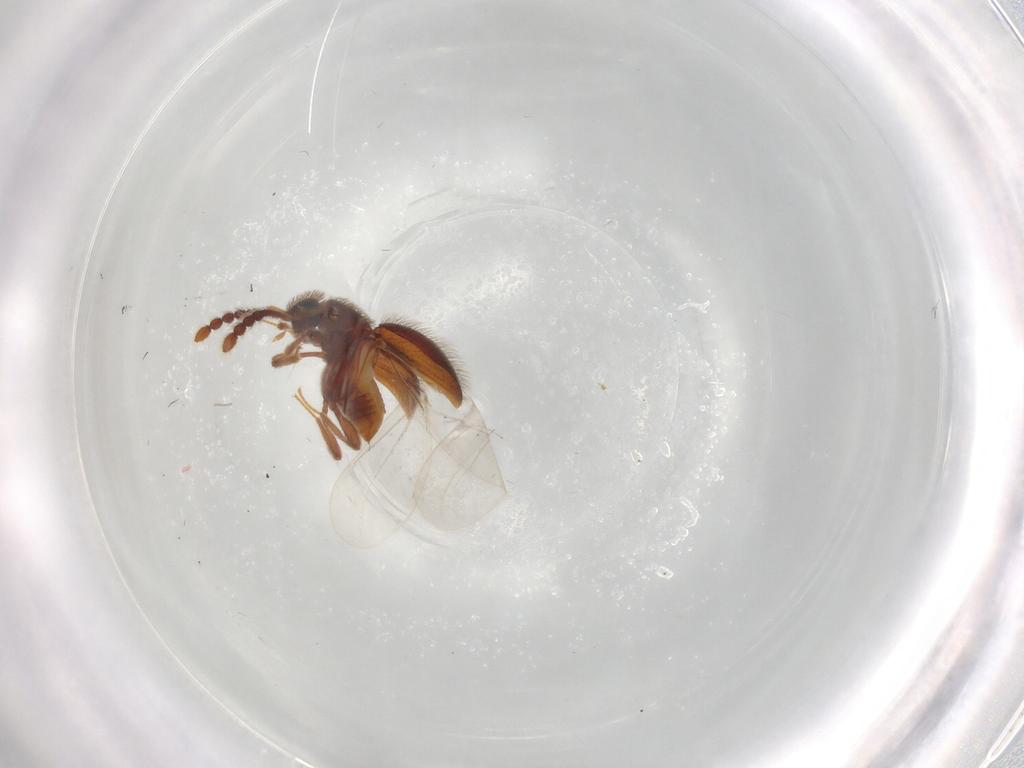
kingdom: Animalia
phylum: Arthropoda
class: Insecta
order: Coleoptera
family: Staphylinidae
